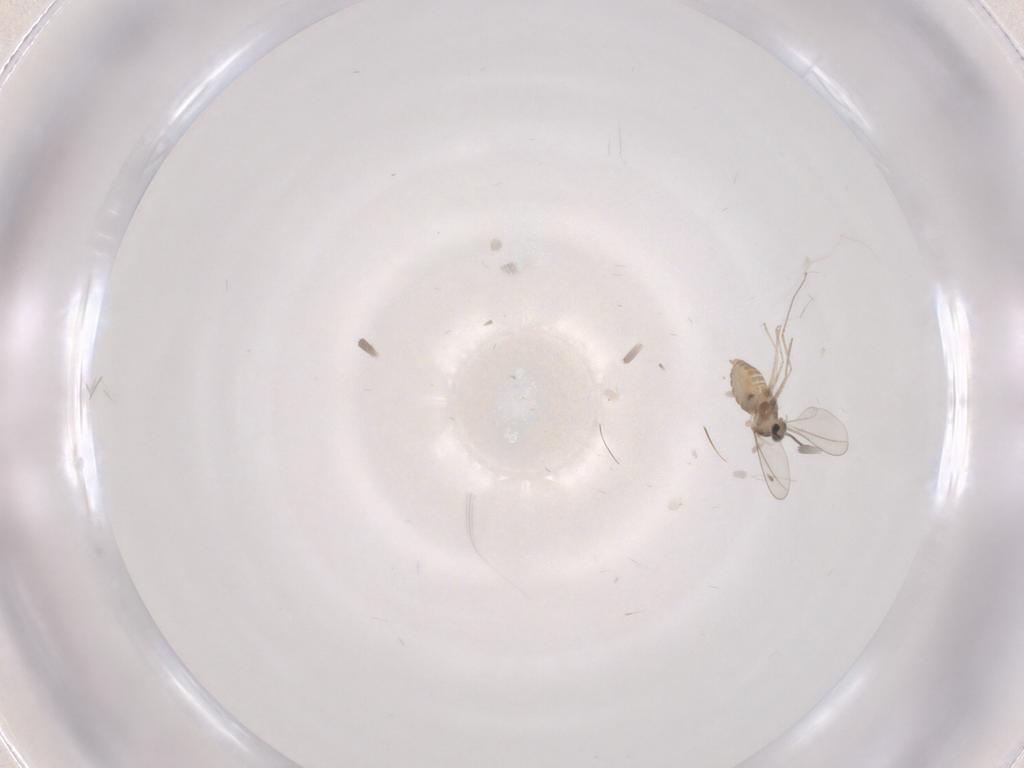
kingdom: Animalia
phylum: Arthropoda
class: Insecta
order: Diptera
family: Cecidomyiidae
